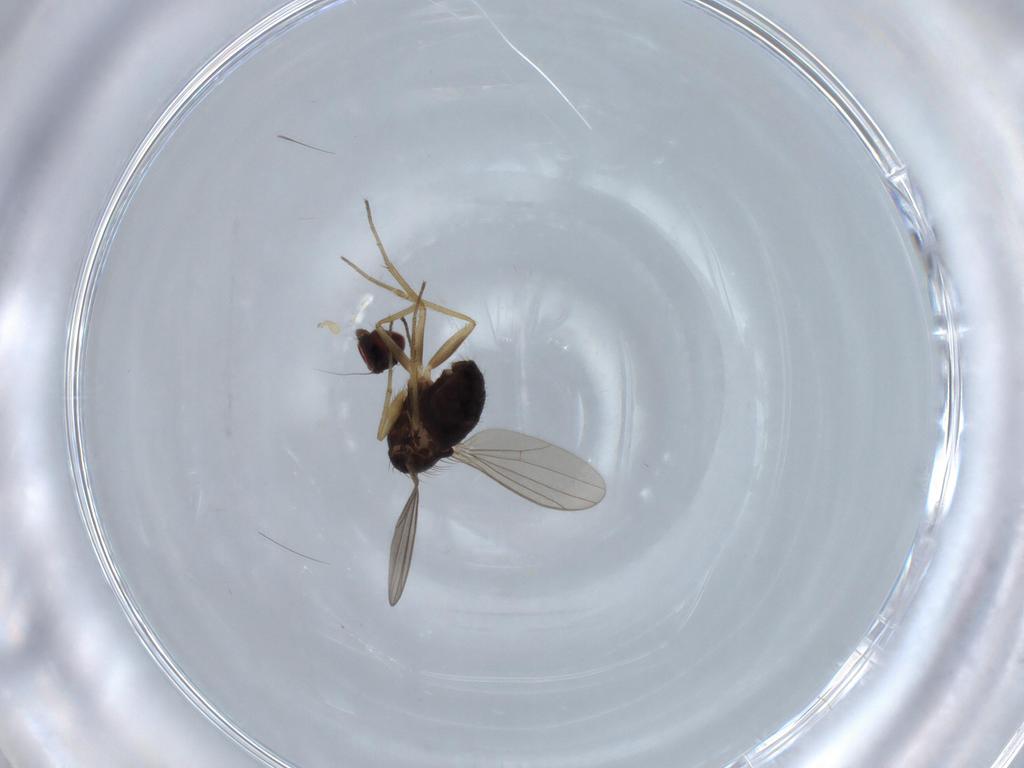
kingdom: Animalia
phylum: Arthropoda
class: Insecta
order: Diptera
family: Dolichopodidae
